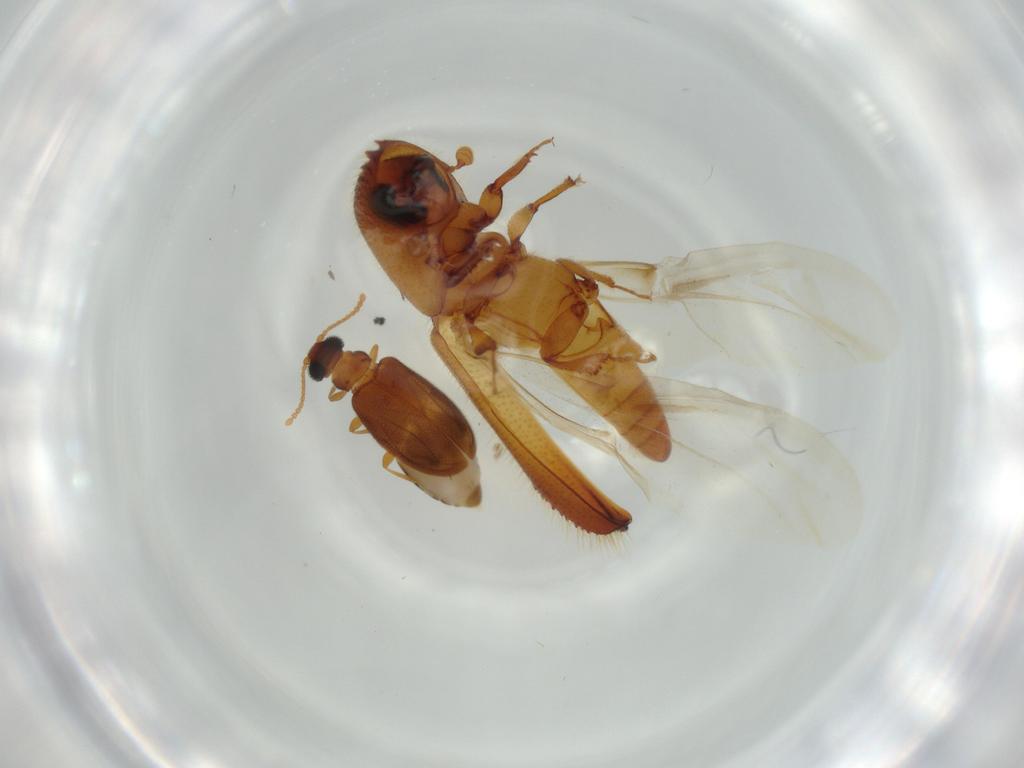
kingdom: Animalia
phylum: Arthropoda
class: Insecta
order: Coleoptera
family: Curculionidae
